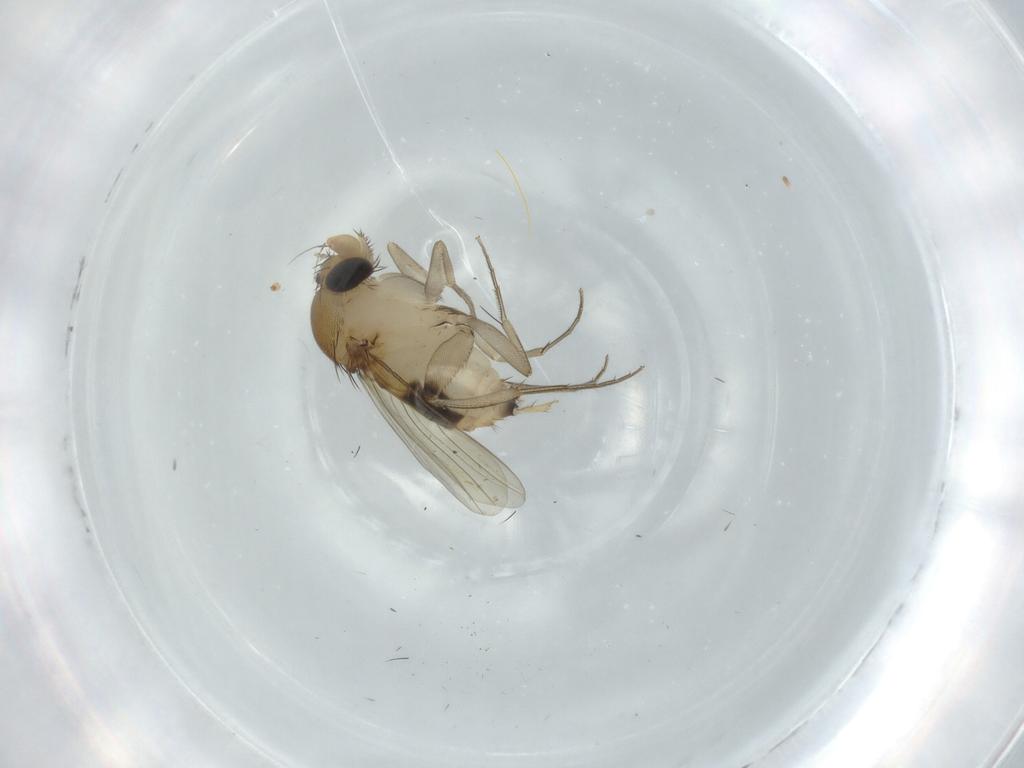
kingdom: Animalia
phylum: Arthropoda
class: Insecta
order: Diptera
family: Phoridae
